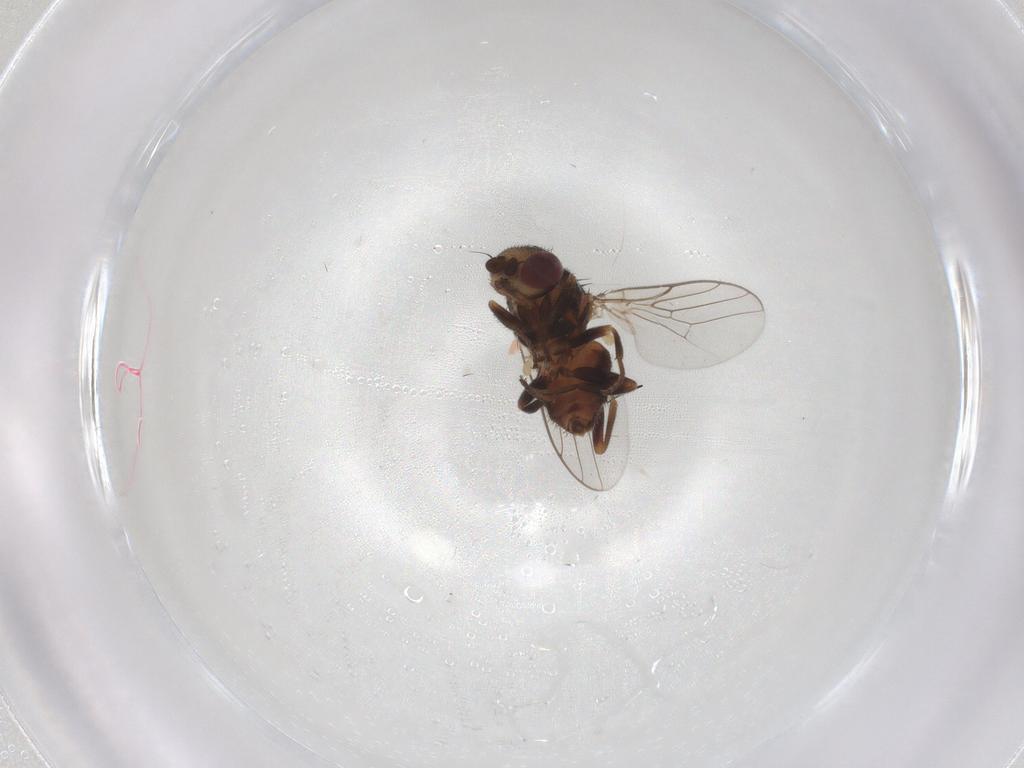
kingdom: Animalia
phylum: Arthropoda
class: Insecta
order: Diptera
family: Chloropidae
